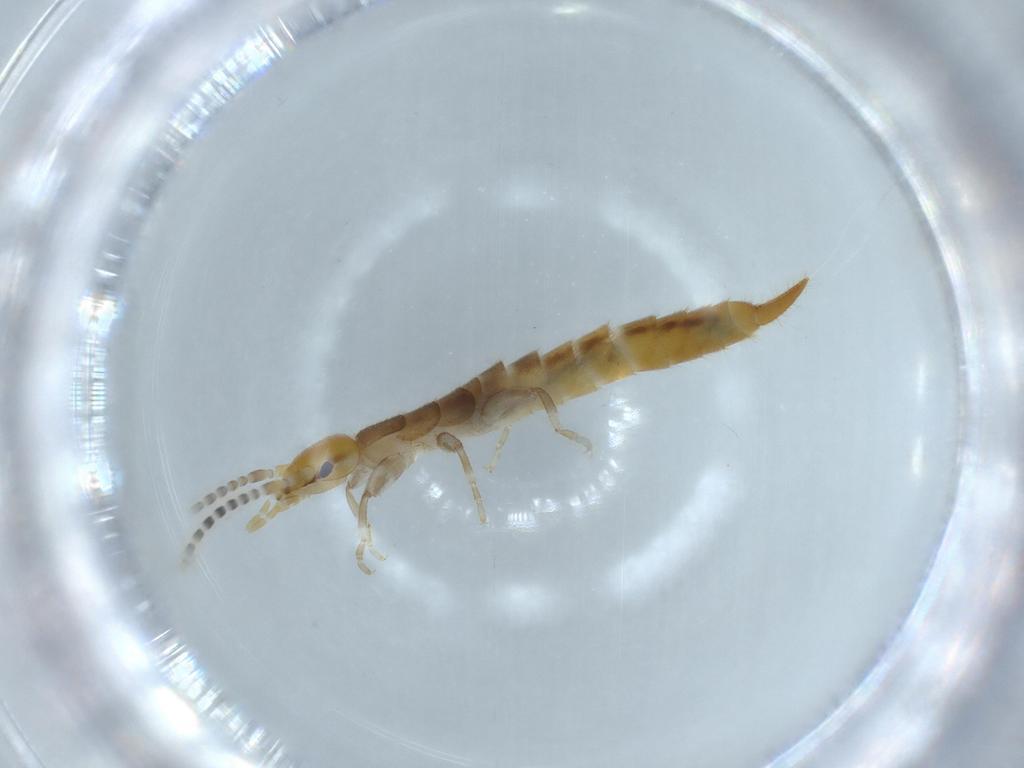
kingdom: Animalia
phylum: Arthropoda
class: Insecta
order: Dermaptera
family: Forficulidae
